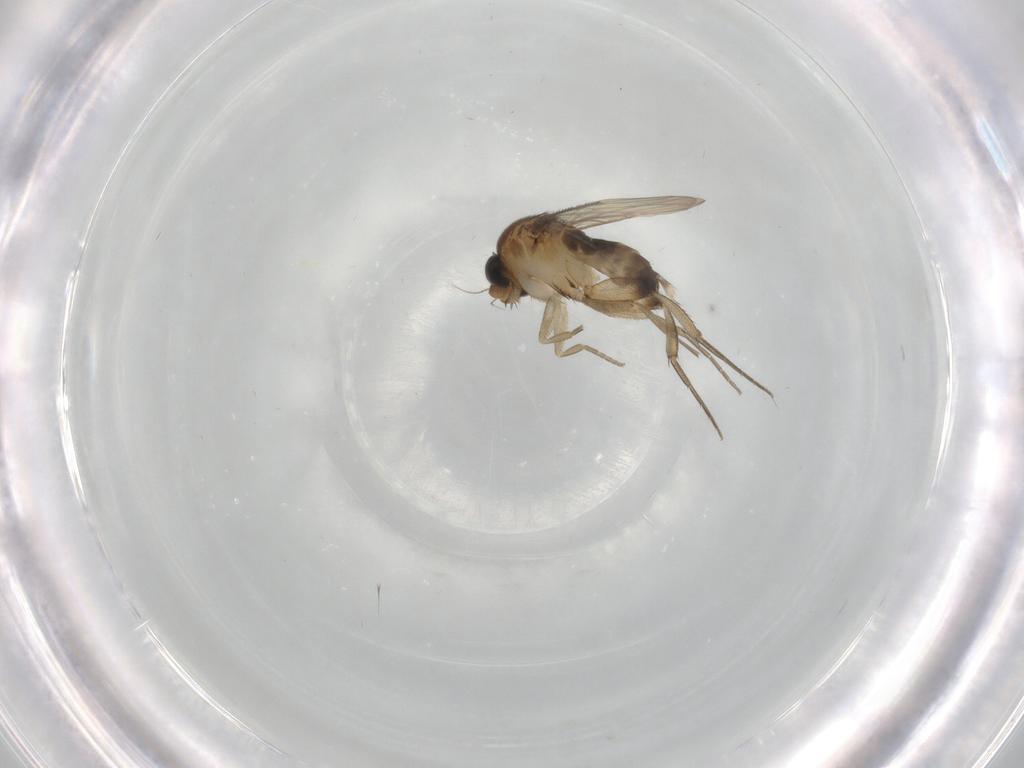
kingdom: Animalia
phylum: Arthropoda
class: Insecta
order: Diptera
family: Phoridae
